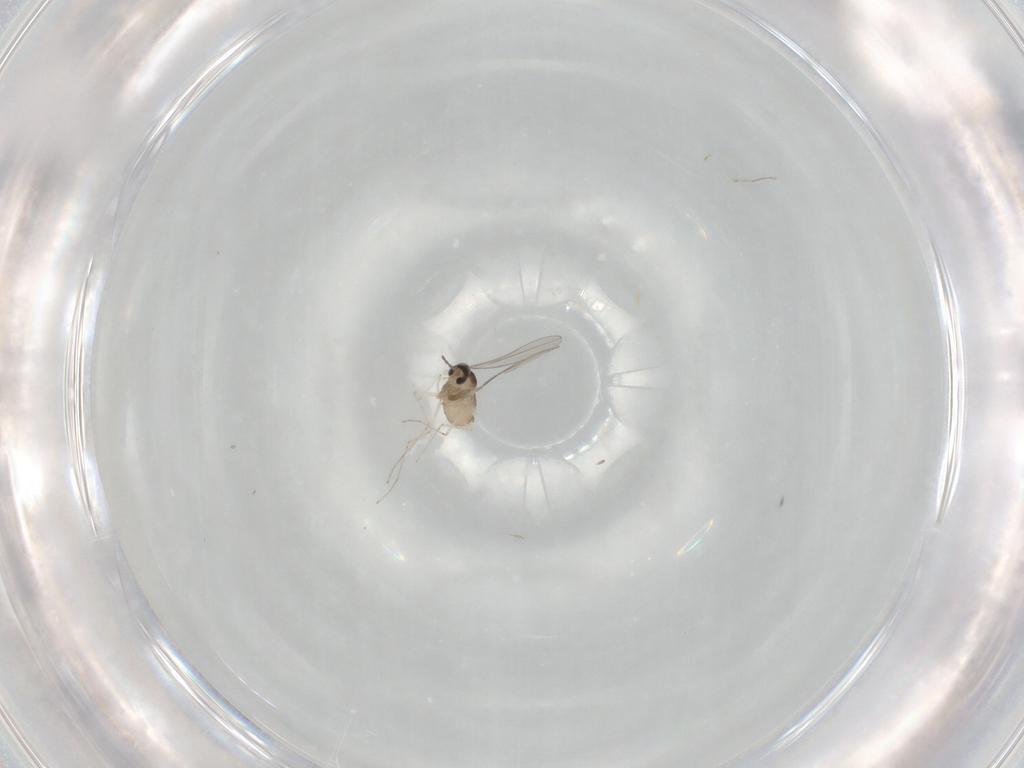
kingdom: Animalia
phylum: Arthropoda
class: Insecta
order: Diptera
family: Cecidomyiidae
